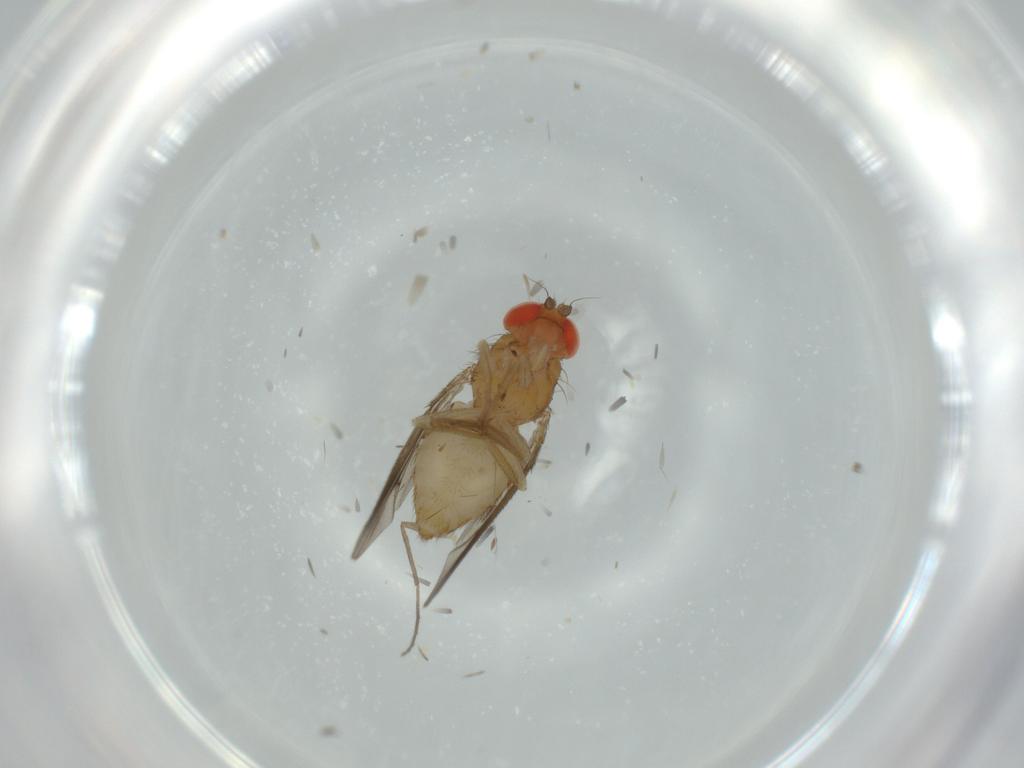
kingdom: Animalia
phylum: Arthropoda
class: Insecta
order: Diptera
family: Drosophilidae
